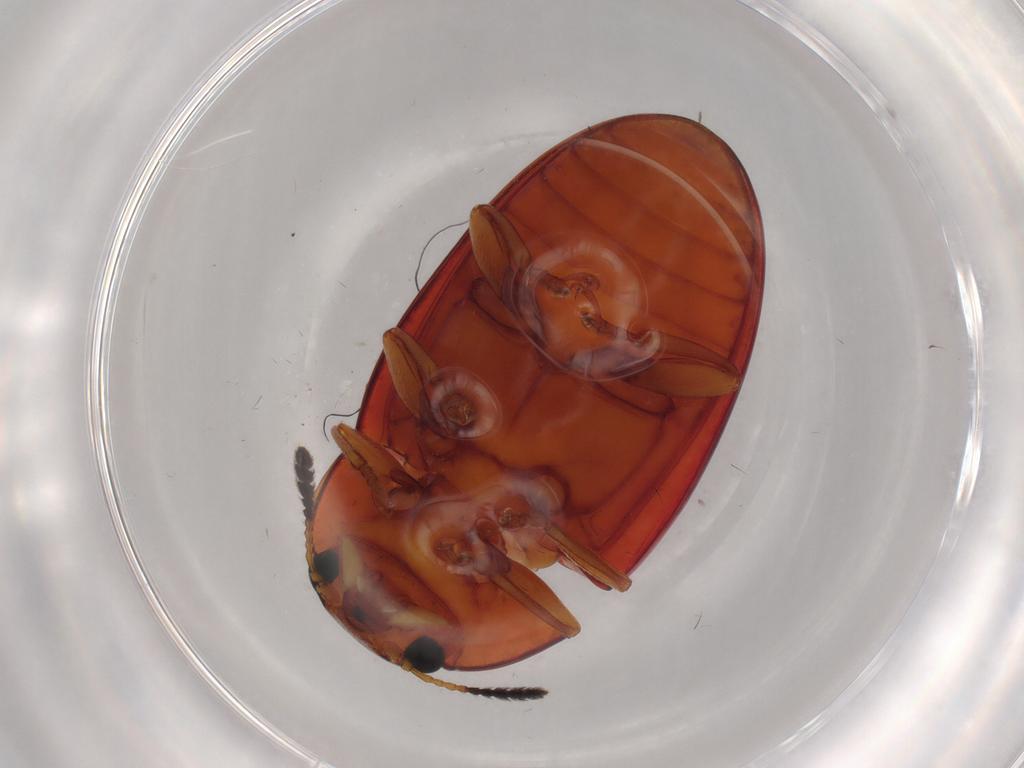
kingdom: Animalia
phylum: Arthropoda
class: Insecta
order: Coleoptera
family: Erotylidae
